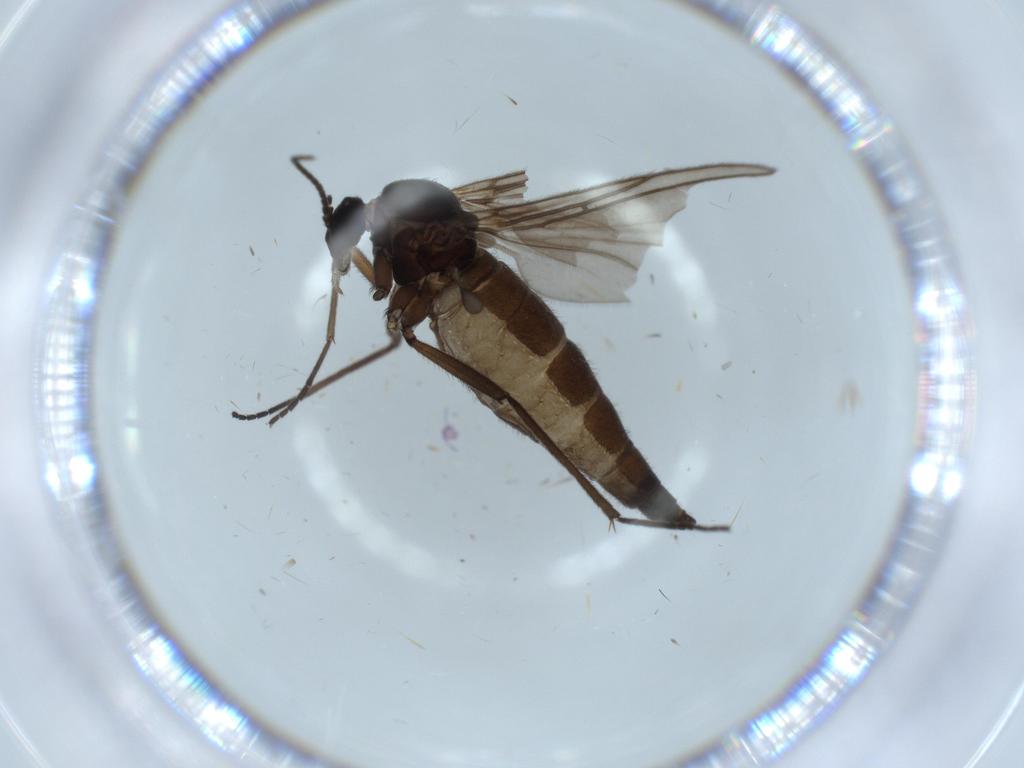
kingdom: Animalia
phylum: Arthropoda
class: Insecta
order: Diptera
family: Sciaridae
